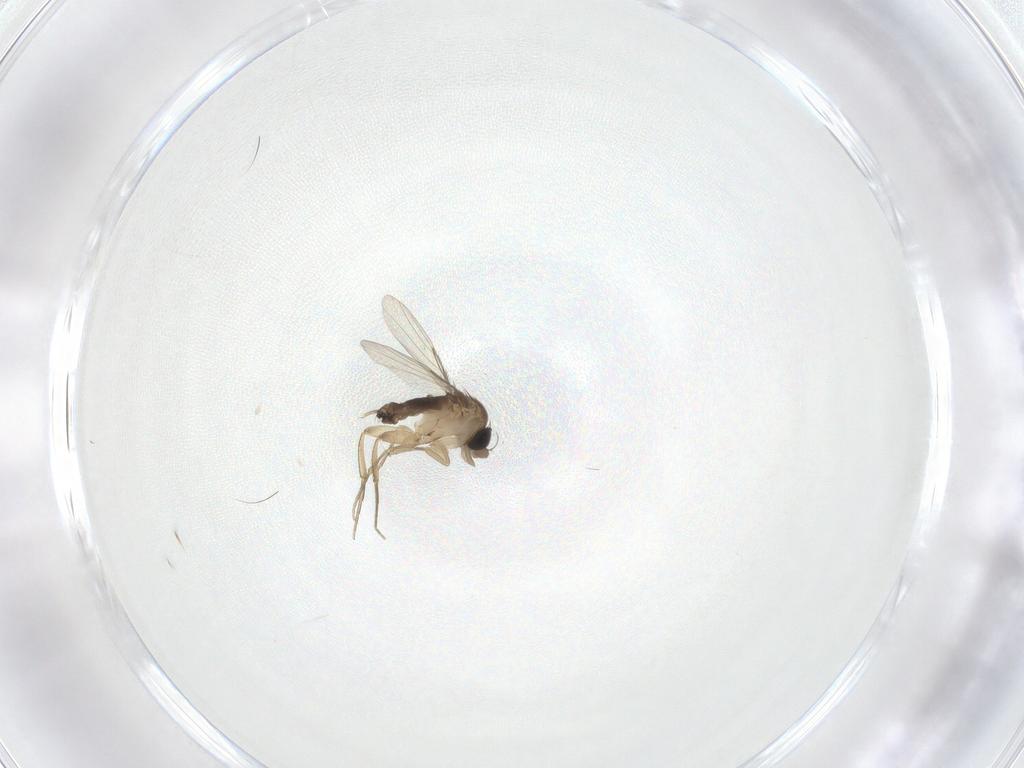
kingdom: Animalia
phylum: Arthropoda
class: Insecta
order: Diptera
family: Phoridae
